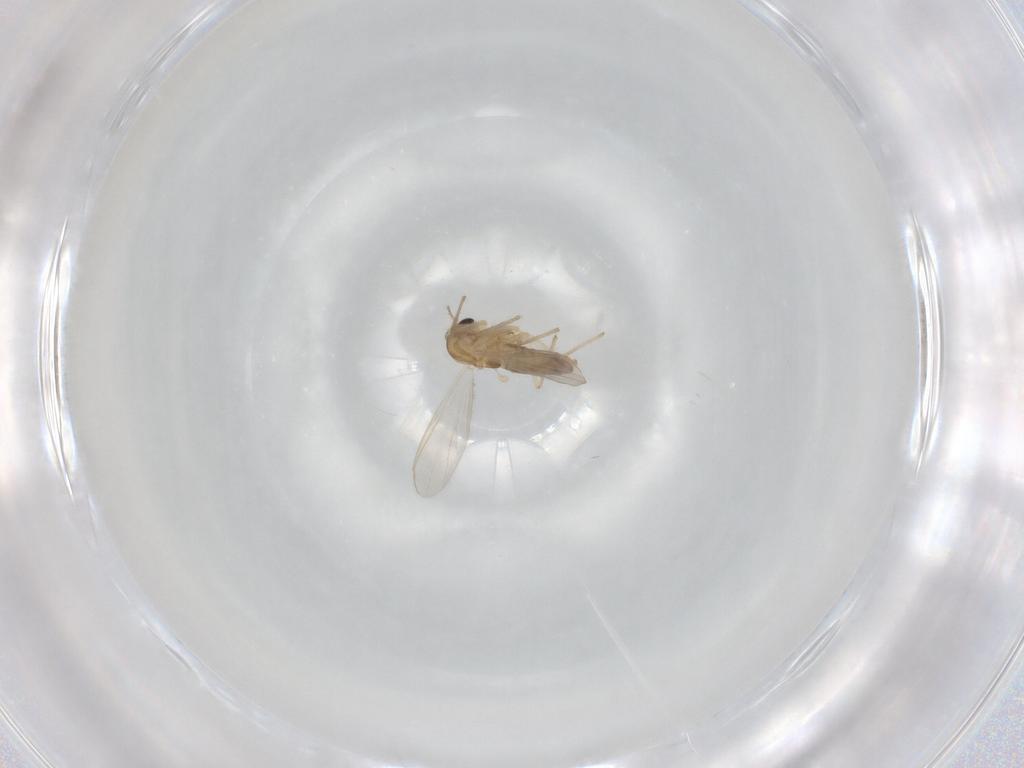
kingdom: Animalia
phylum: Arthropoda
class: Insecta
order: Diptera
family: Chironomidae
